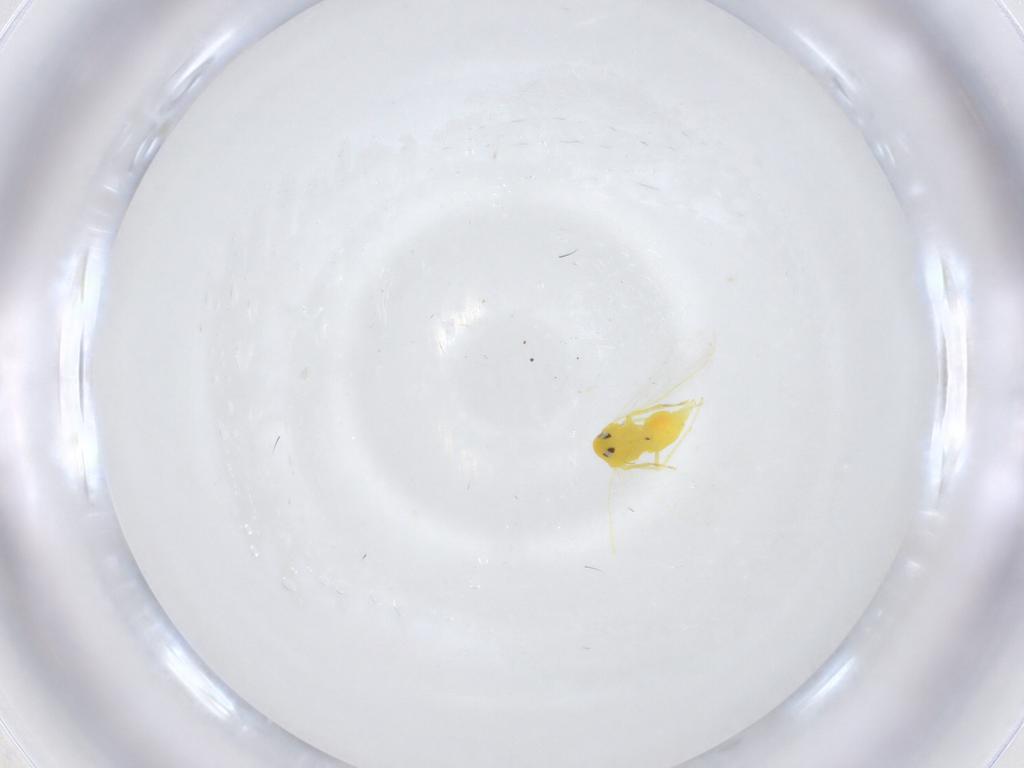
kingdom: Animalia
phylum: Arthropoda
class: Insecta
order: Hemiptera
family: Aleyrodidae
